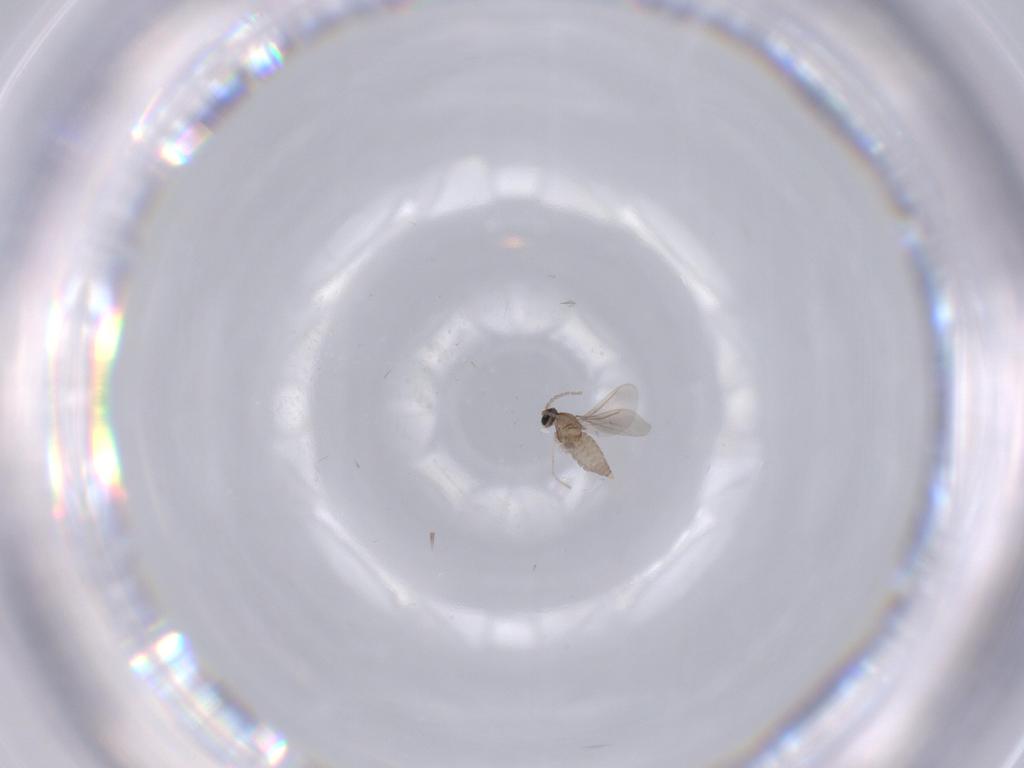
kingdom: Animalia
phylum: Arthropoda
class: Insecta
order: Diptera
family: Cecidomyiidae
